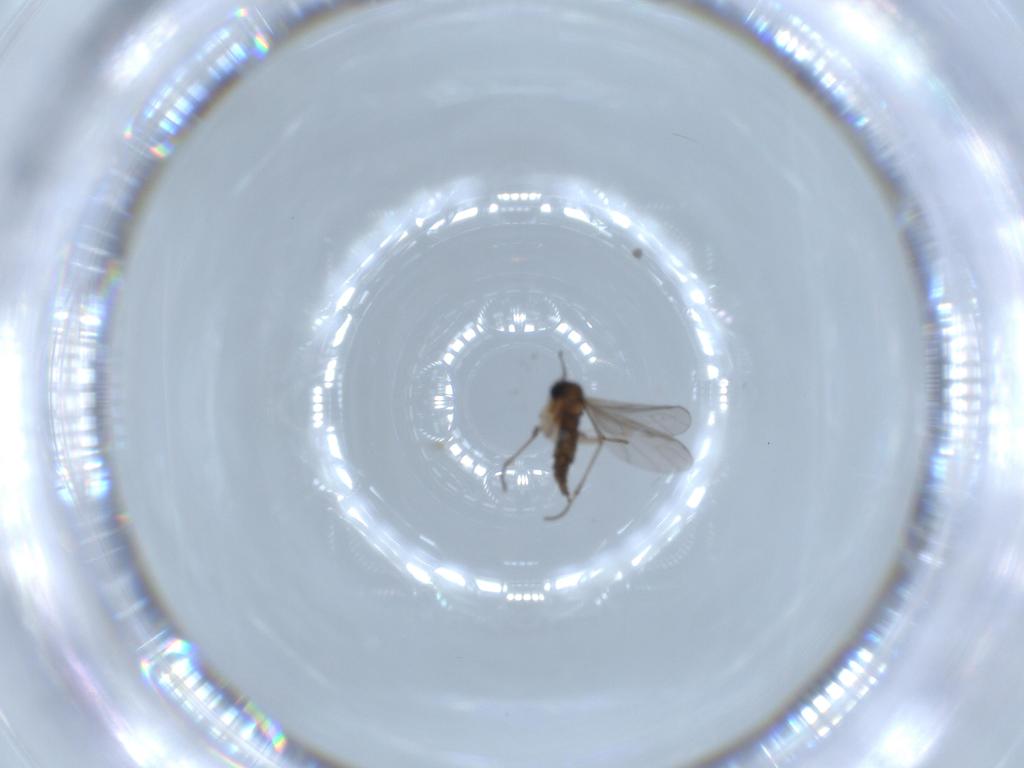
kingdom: Animalia
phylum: Arthropoda
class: Insecta
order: Diptera
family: Sciaridae
